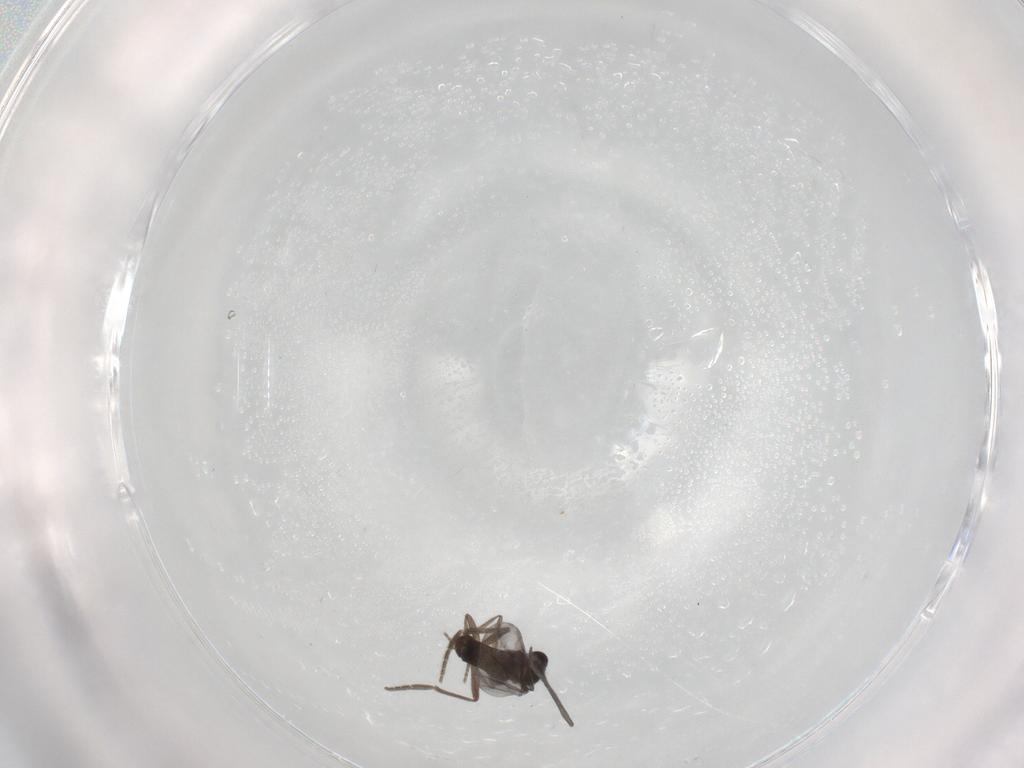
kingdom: Animalia
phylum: Arthropoda
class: Insecta
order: Diptera
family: Phoridae
